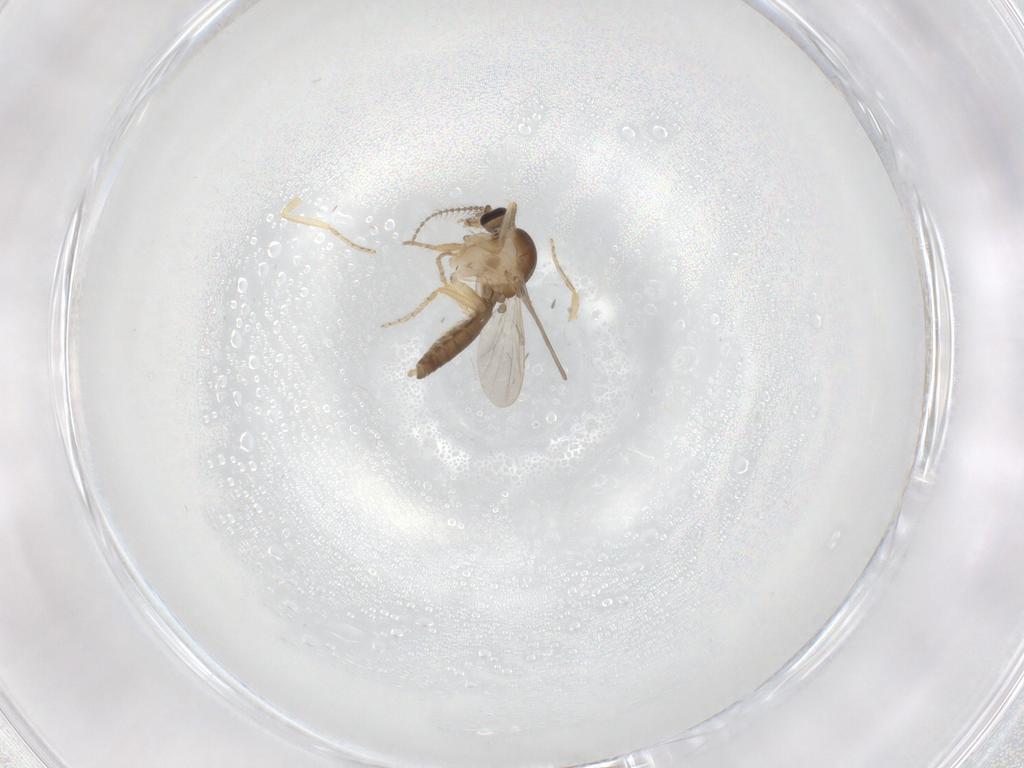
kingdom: Animalia
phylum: Arthropoda
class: Insecta
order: Diptera
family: Ceratopogonidae
